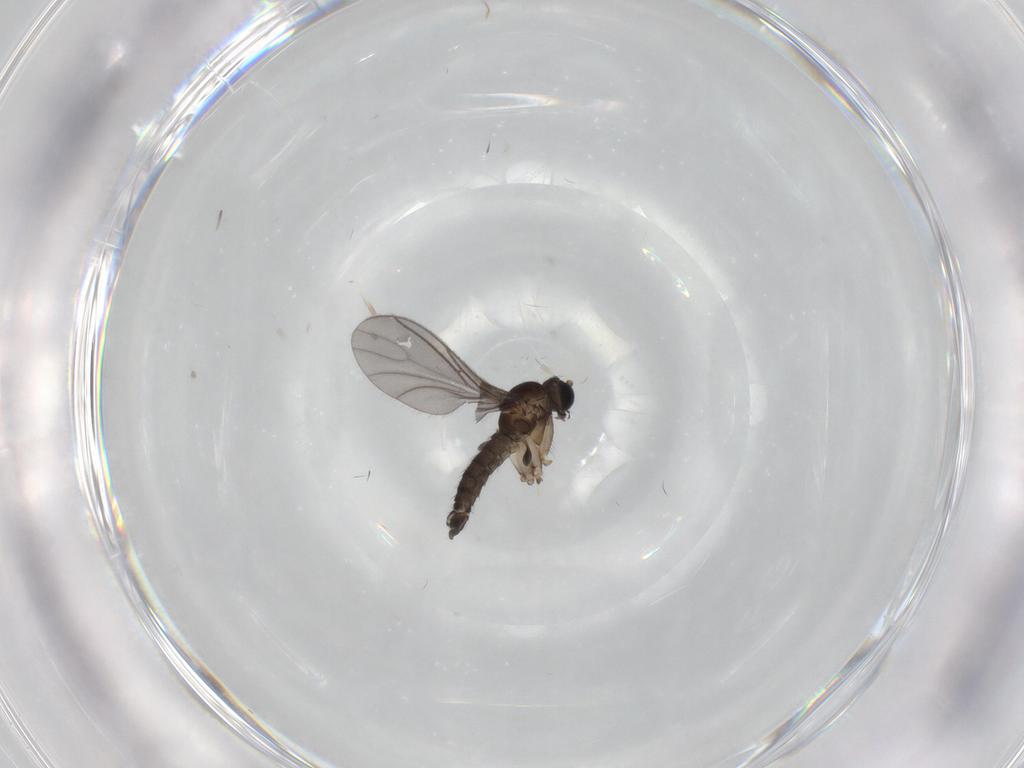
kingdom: Animalia
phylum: Arthropoda
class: Insecta
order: Diptera
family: Sciaridae
